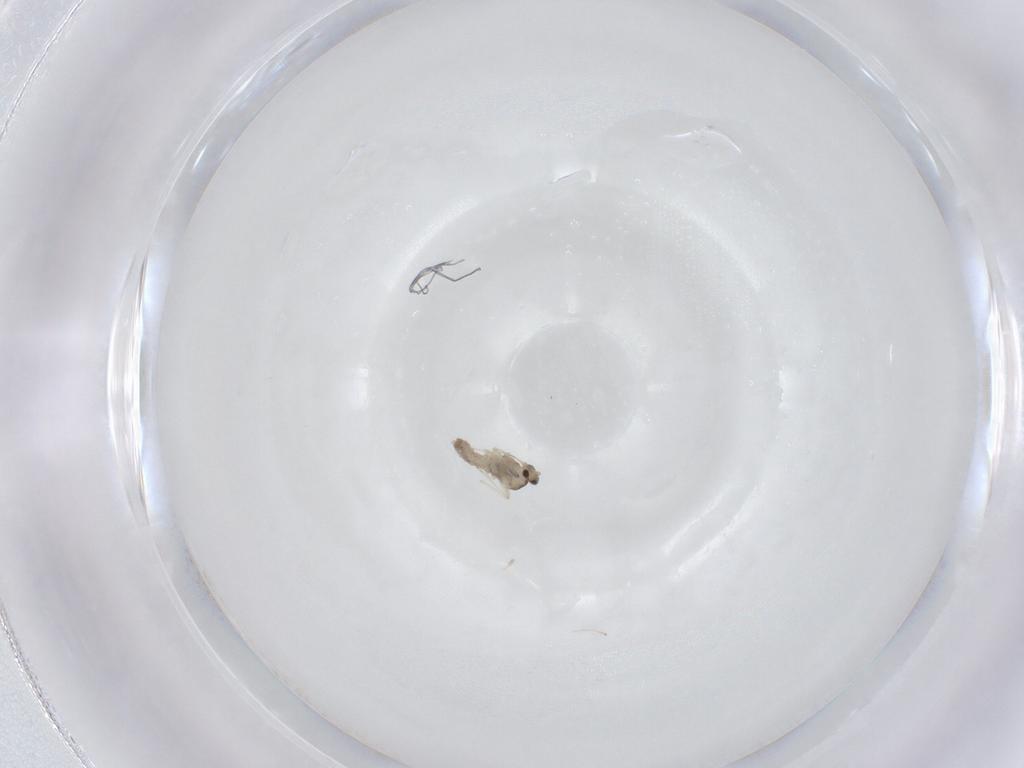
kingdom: Animalia
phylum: Arthropoda
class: Insecta
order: Diptera
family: Cecidomyiidae
